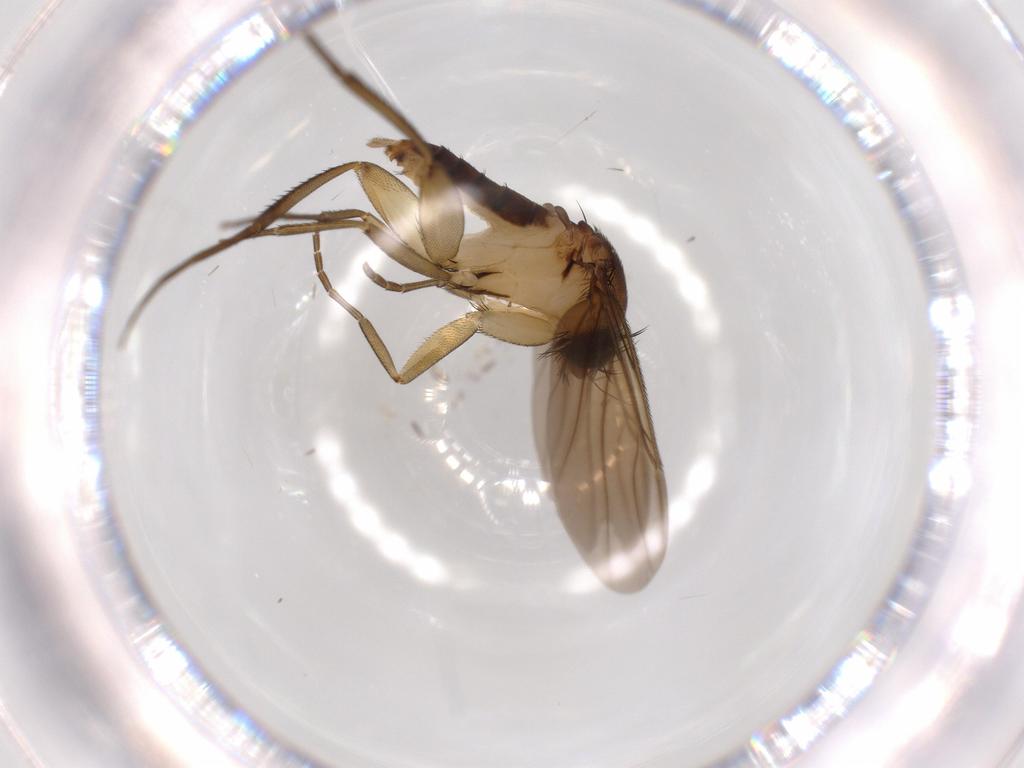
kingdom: Animalia
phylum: Arthropoda
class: Insecta
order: Diptera
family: Phoridae
